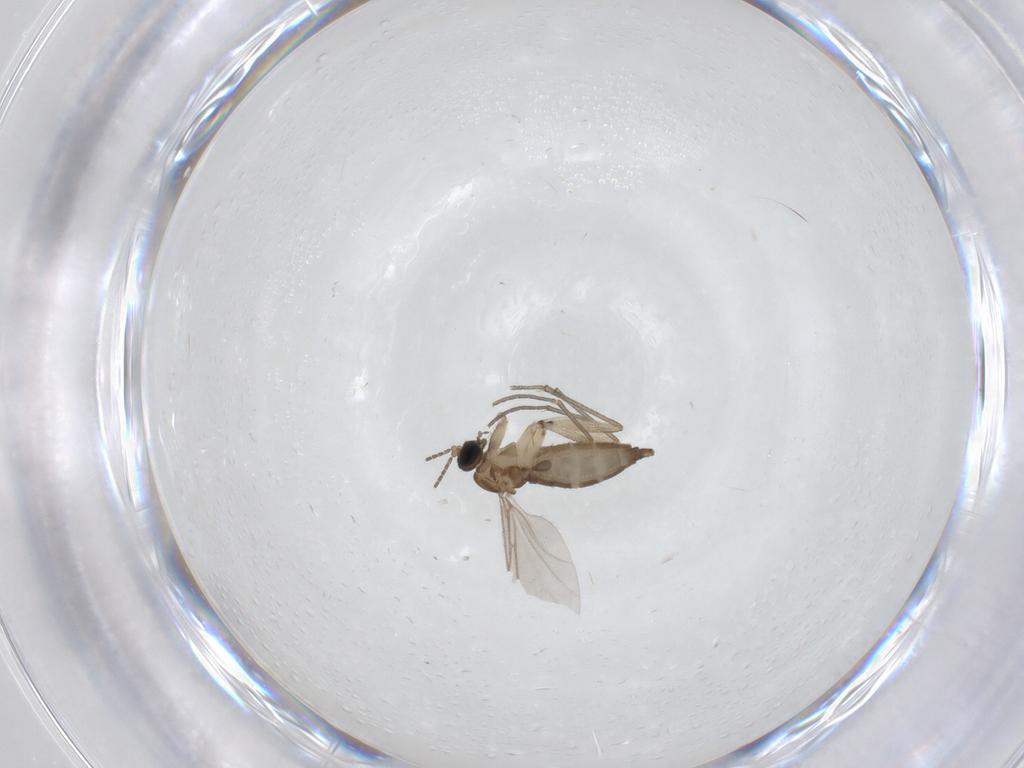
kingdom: Animalia
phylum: Arthropoda
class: Insecta
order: Diptera
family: Sciaridae
